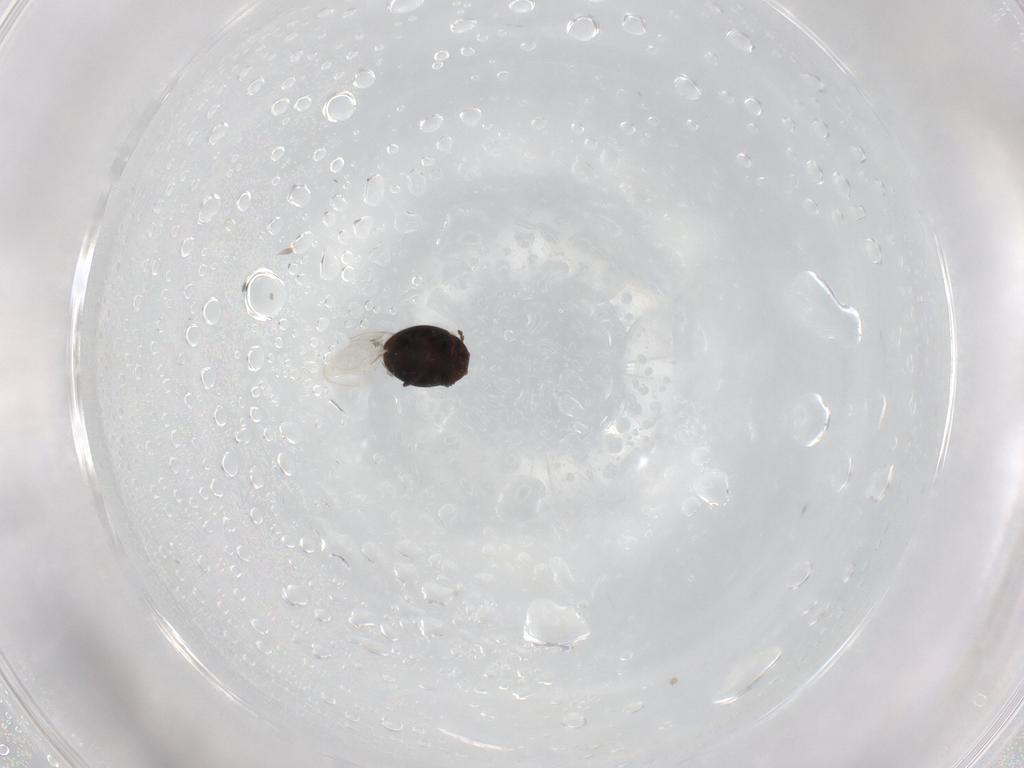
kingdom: Animalia
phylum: Arthropoda
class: Insecta
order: Coleoptera
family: Corylophidae
